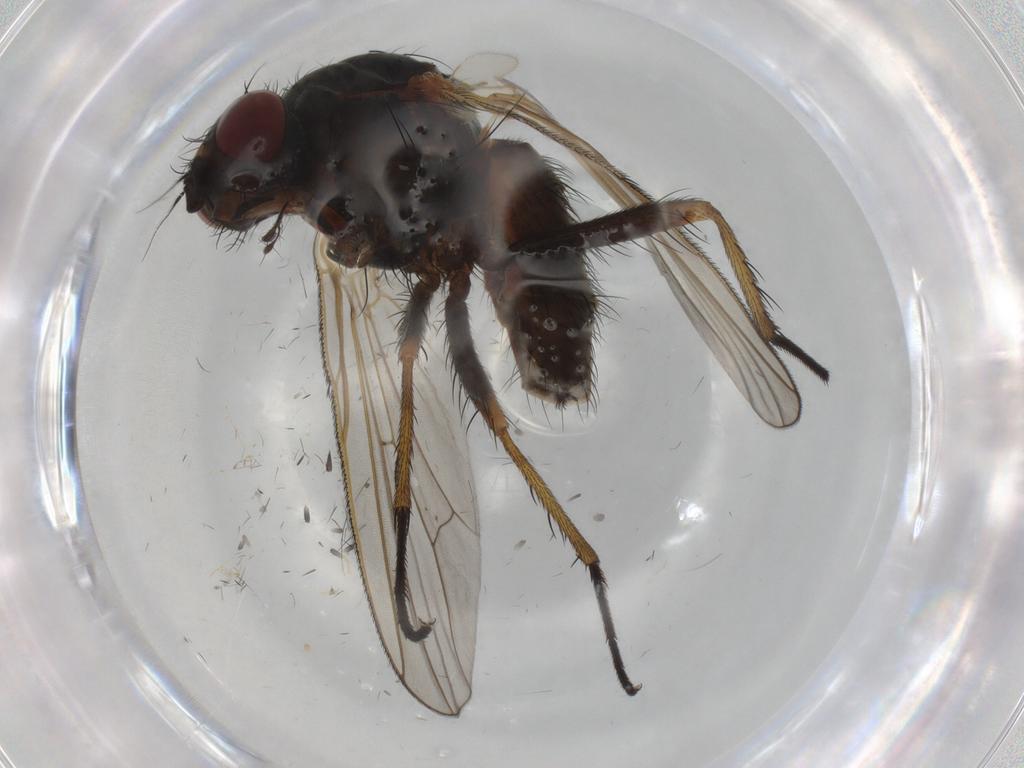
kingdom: Animalia
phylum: Arthropoda
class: Insecta
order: Diptera
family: Anthomyiidae
